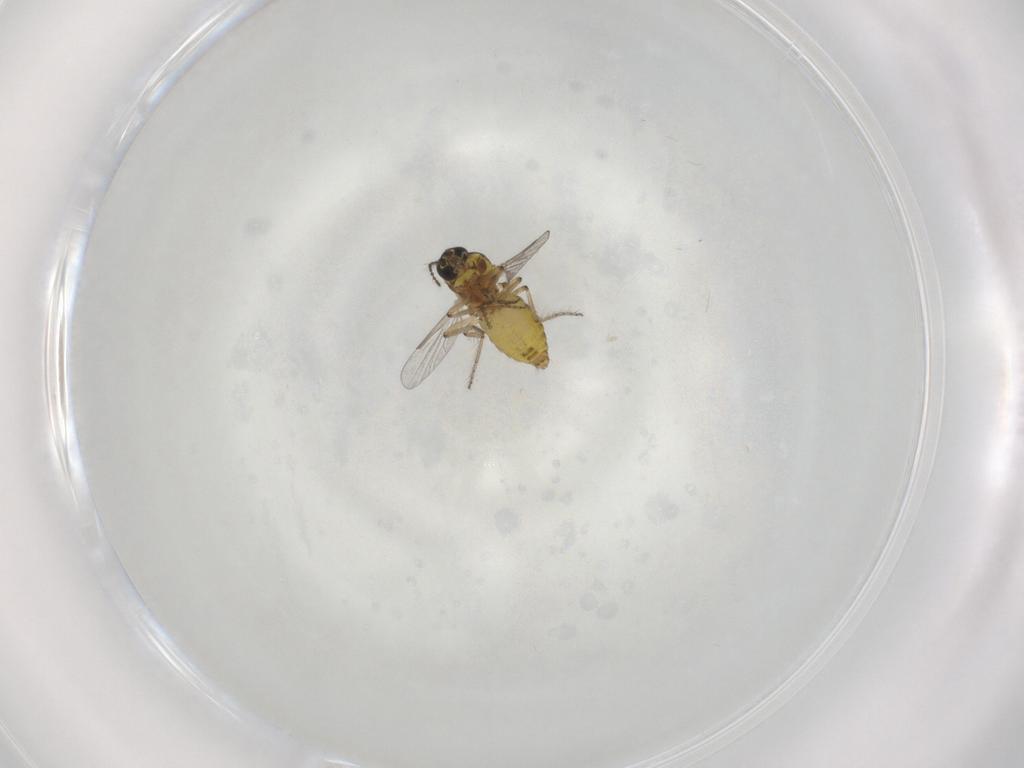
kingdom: Animalia
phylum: Arthropoda
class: Insecta
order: Diptera
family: Ceratopogonidae
